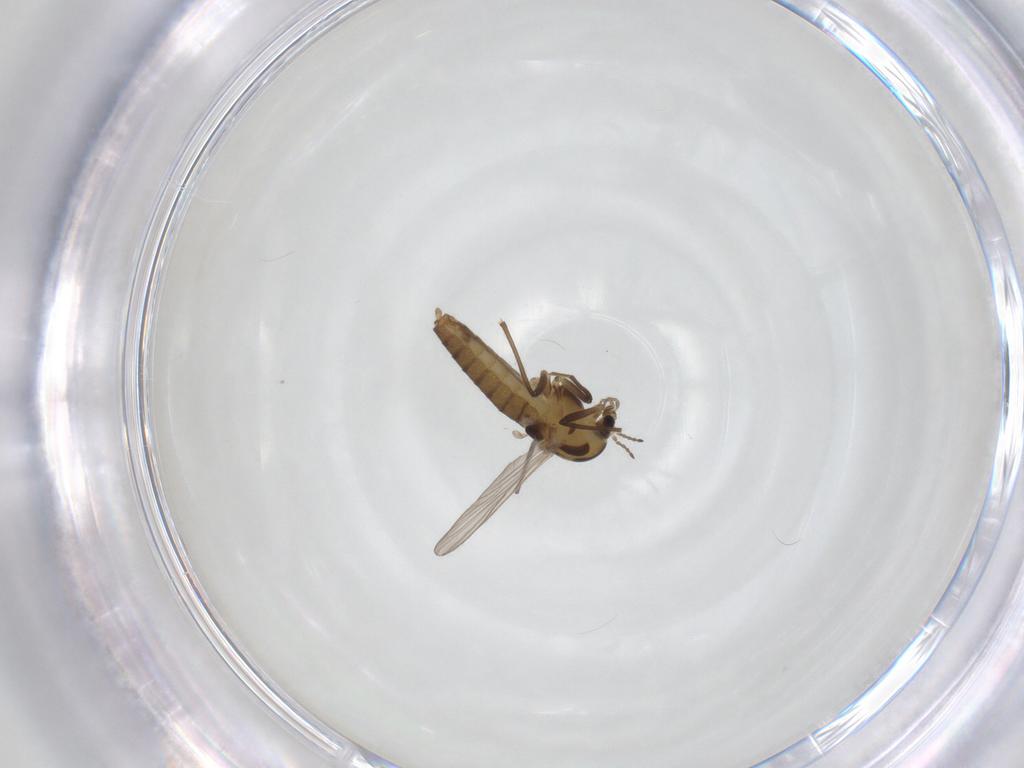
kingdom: Animalia
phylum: Arthropoda
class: Insecta
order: Diptera
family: Chironomidae
